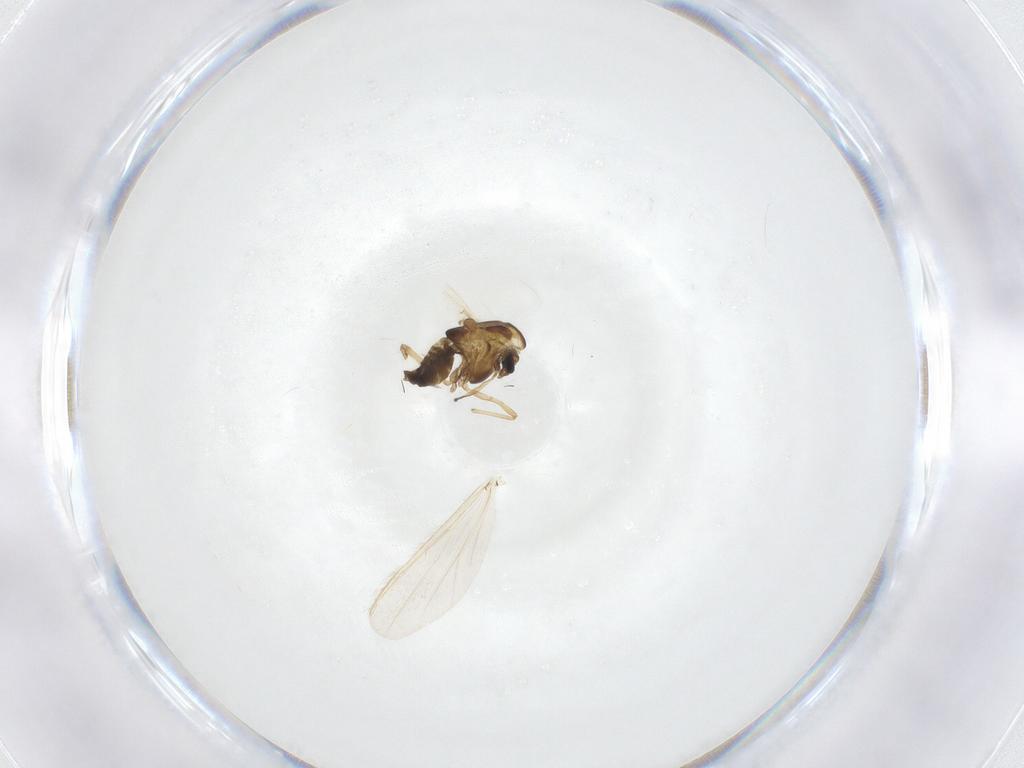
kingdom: Animalia
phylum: Arthropoda
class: Insecta
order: Diptera
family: Chironomidae
